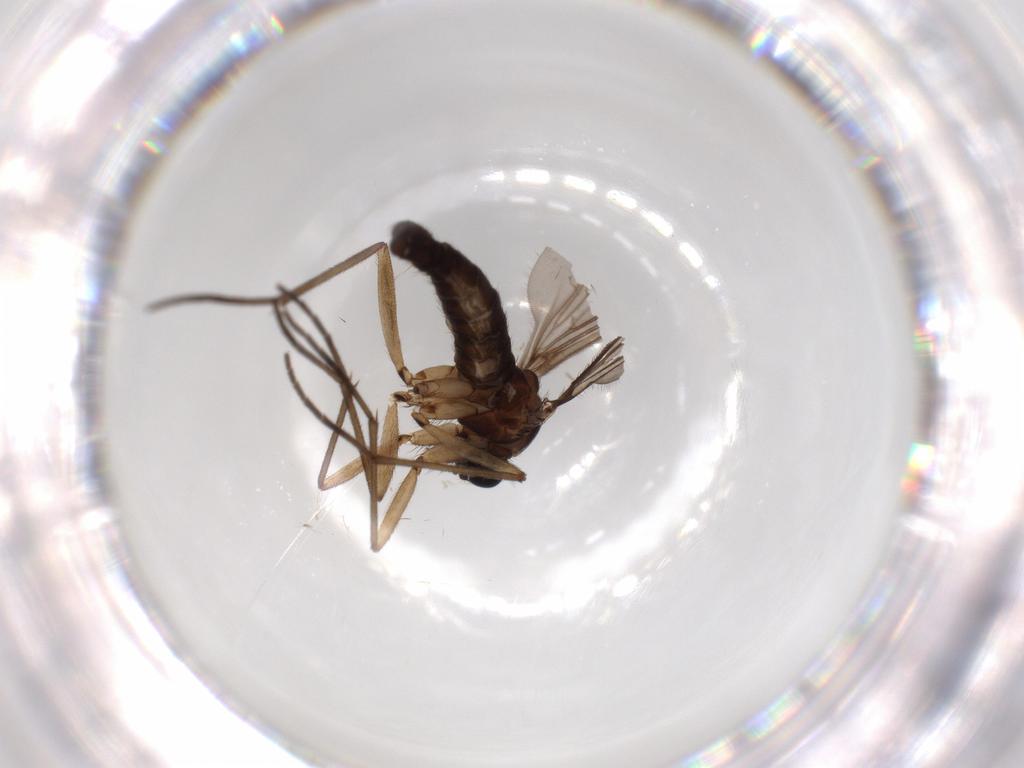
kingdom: Animalia
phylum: Arthropoda
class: Insecta
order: Diptera
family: Sciaridae
